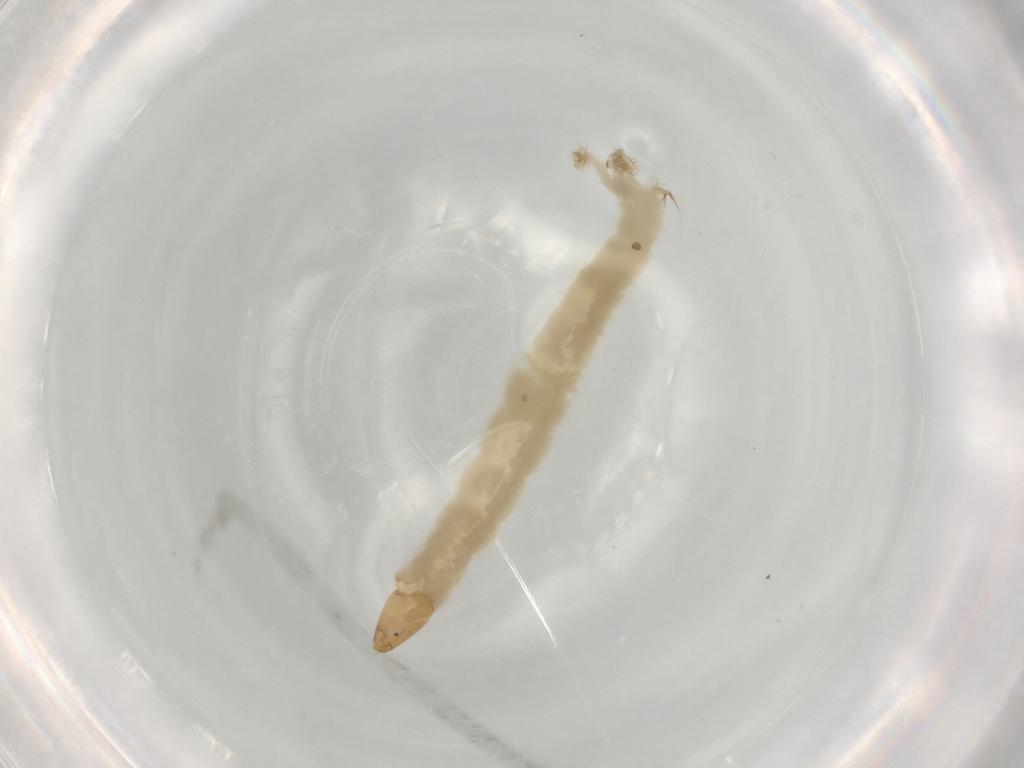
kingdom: Animalia
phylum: Arthropoda
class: Insecta
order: Diptera
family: Chironomidae
